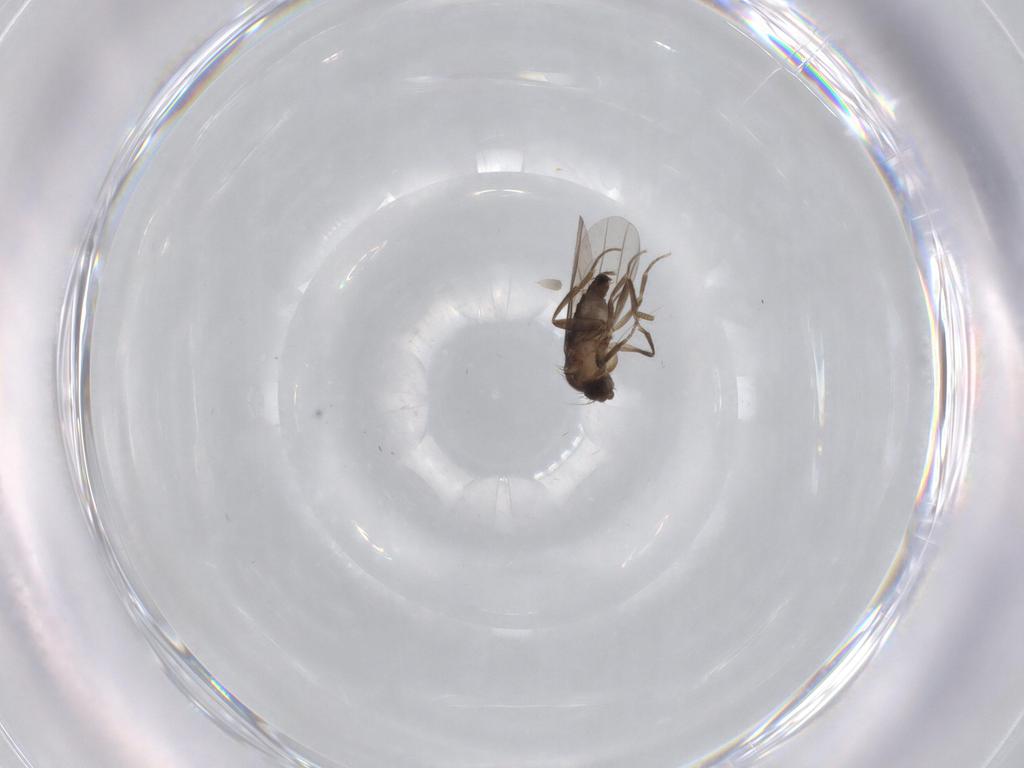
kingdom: Animalia
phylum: Arthropoda
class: Insecta
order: Diptera
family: Phoridae
